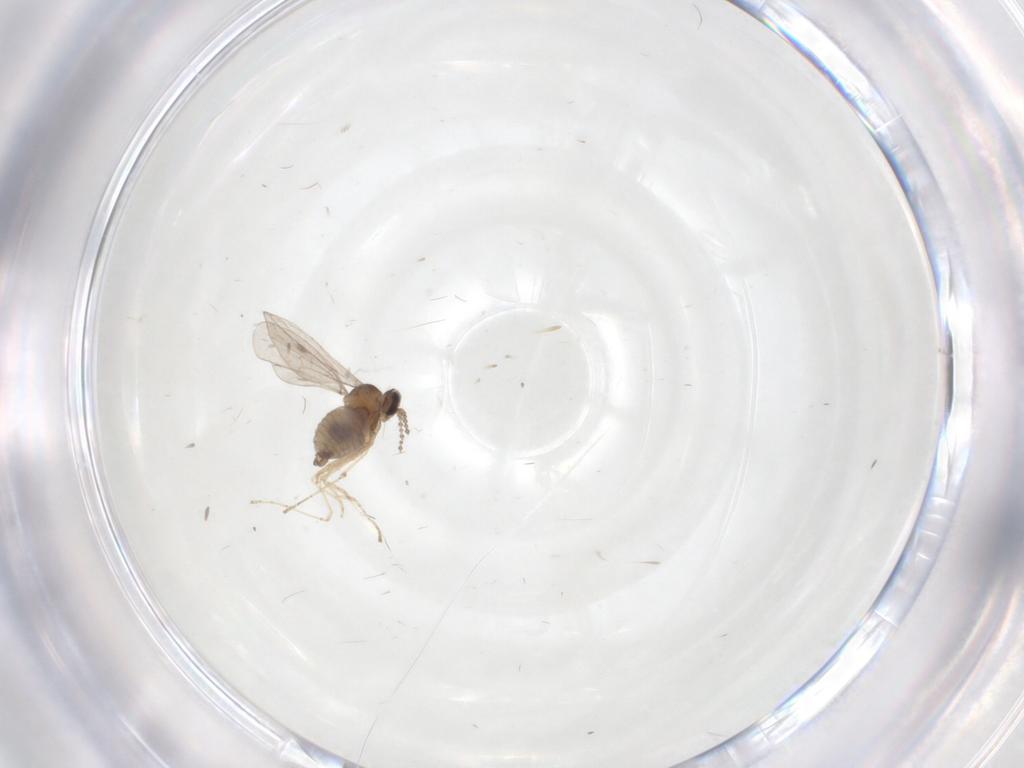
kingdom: Animalia
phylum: Arthropoda
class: Insecta
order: Diptera
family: Cecidomyiidae
